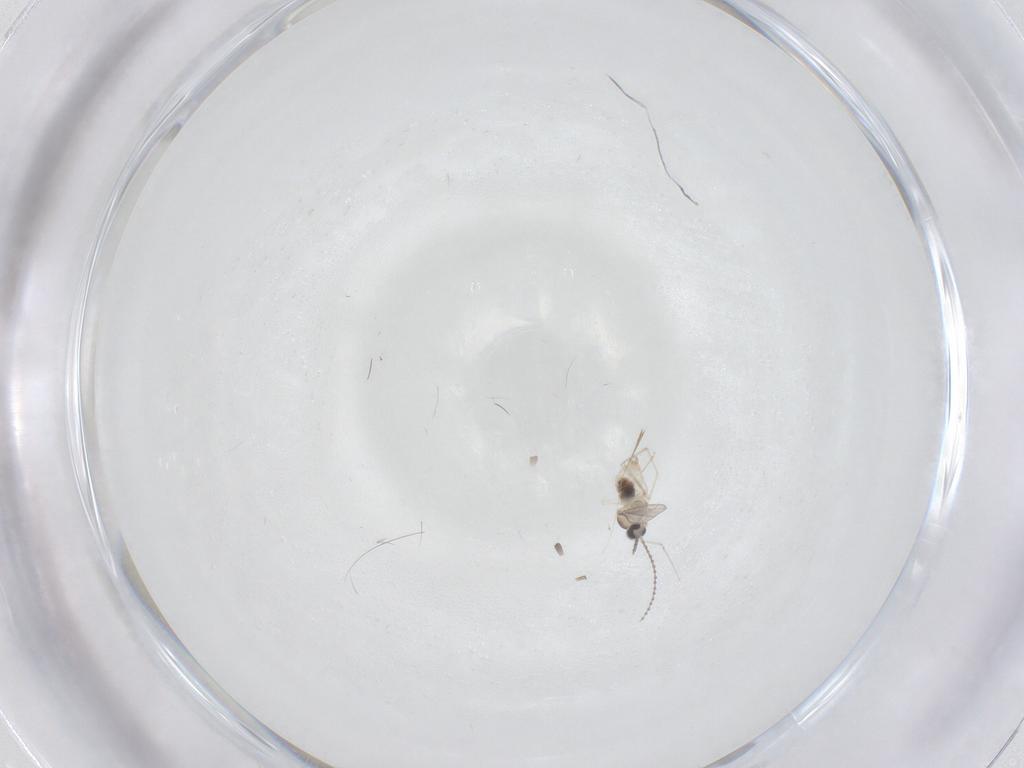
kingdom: Animalia
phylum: Arthropoda
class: Insecta
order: Diptera
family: Cecidomyiidae
